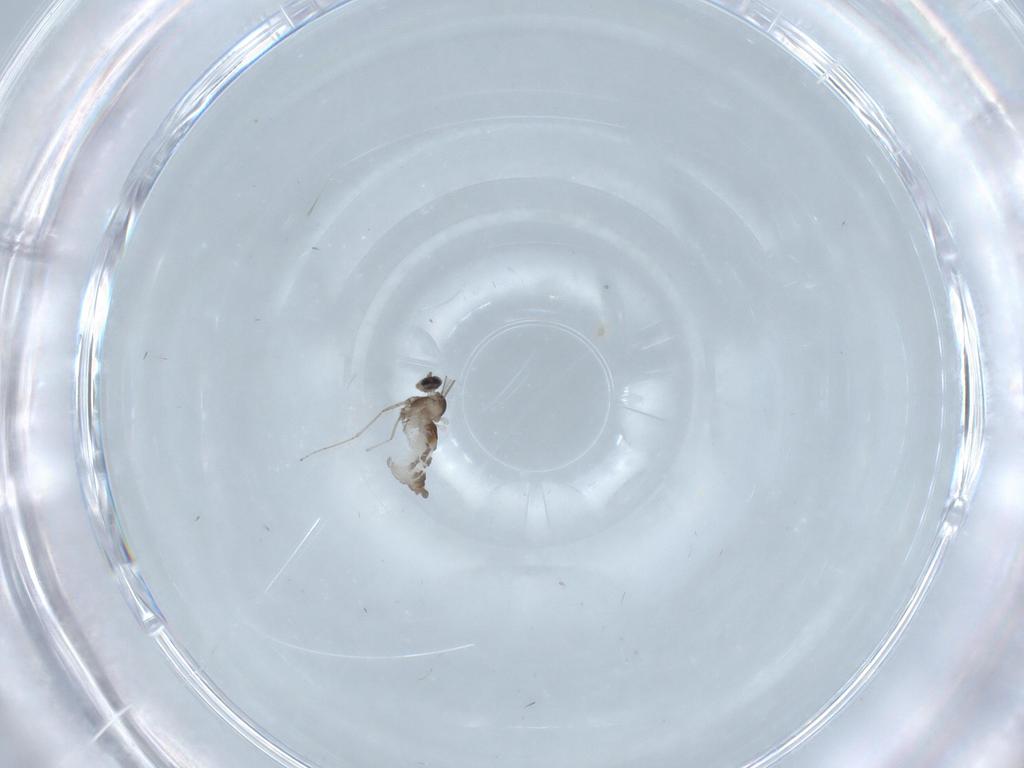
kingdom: Animalia
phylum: Arthropoda
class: Insecta
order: Diptera
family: Cecidomyiidae
